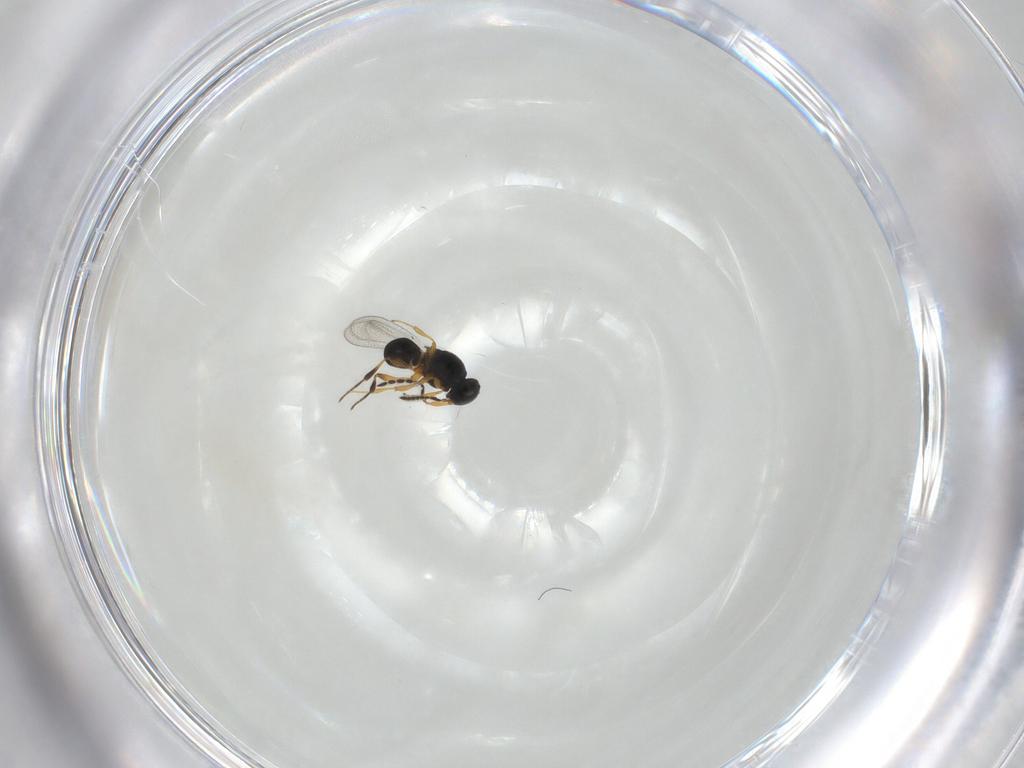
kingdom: Animalia
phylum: Arthropoda
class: Insecta
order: Hymenoptera
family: Platygastridae
